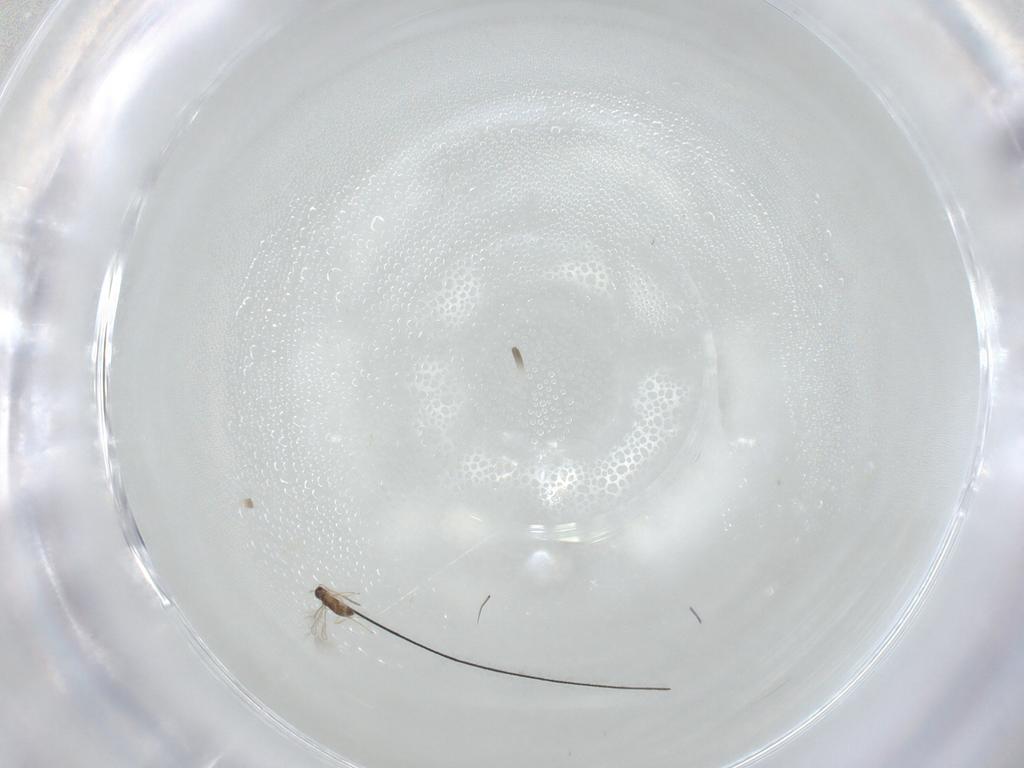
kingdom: Animalia
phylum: Arthropoda
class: Insecta
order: Hymenoptera
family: Mymaridae
